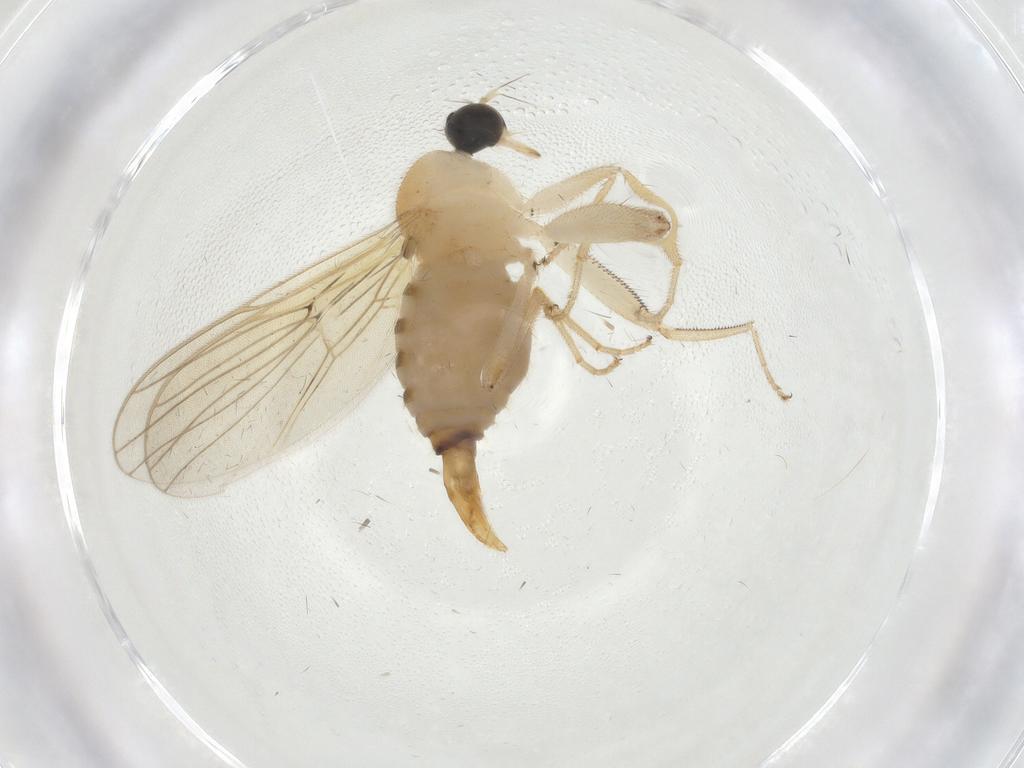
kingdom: Animalia
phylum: Arthropoda
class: Insecta
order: Diptera
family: Hybotidae
